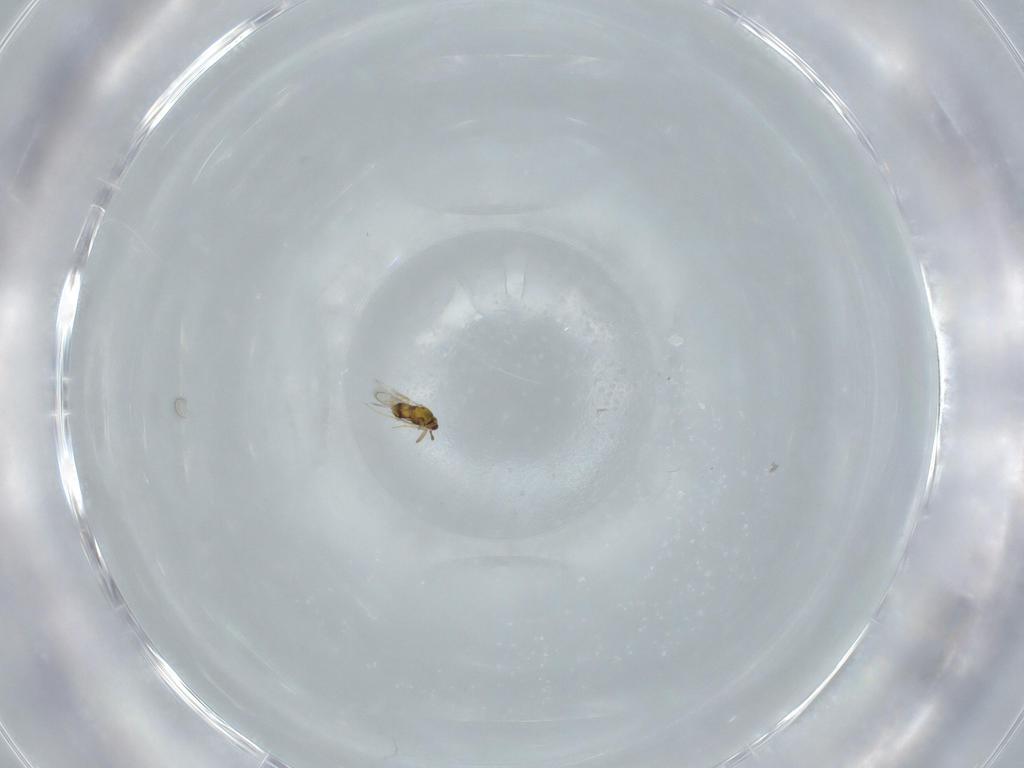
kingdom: Animalia
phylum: Arthropoda
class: Insecta
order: Hymenoptera
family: Aphelinidae
